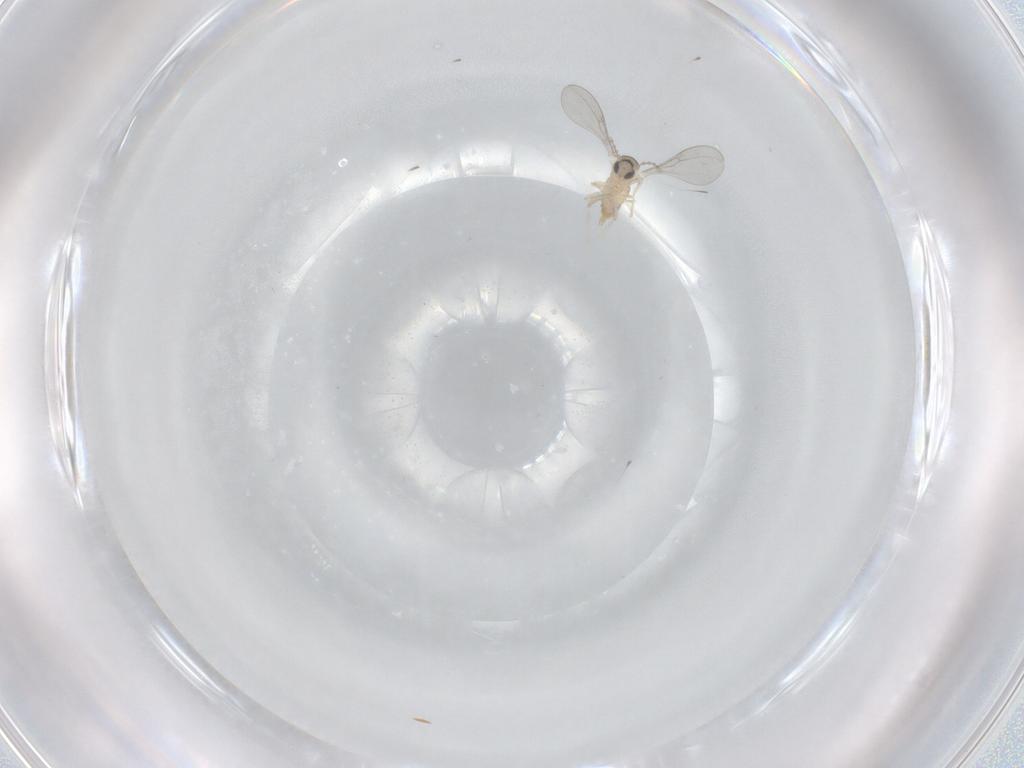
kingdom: Animalia
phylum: Arthropoda
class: Insecta
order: Diptera
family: Cecidomyiidae
